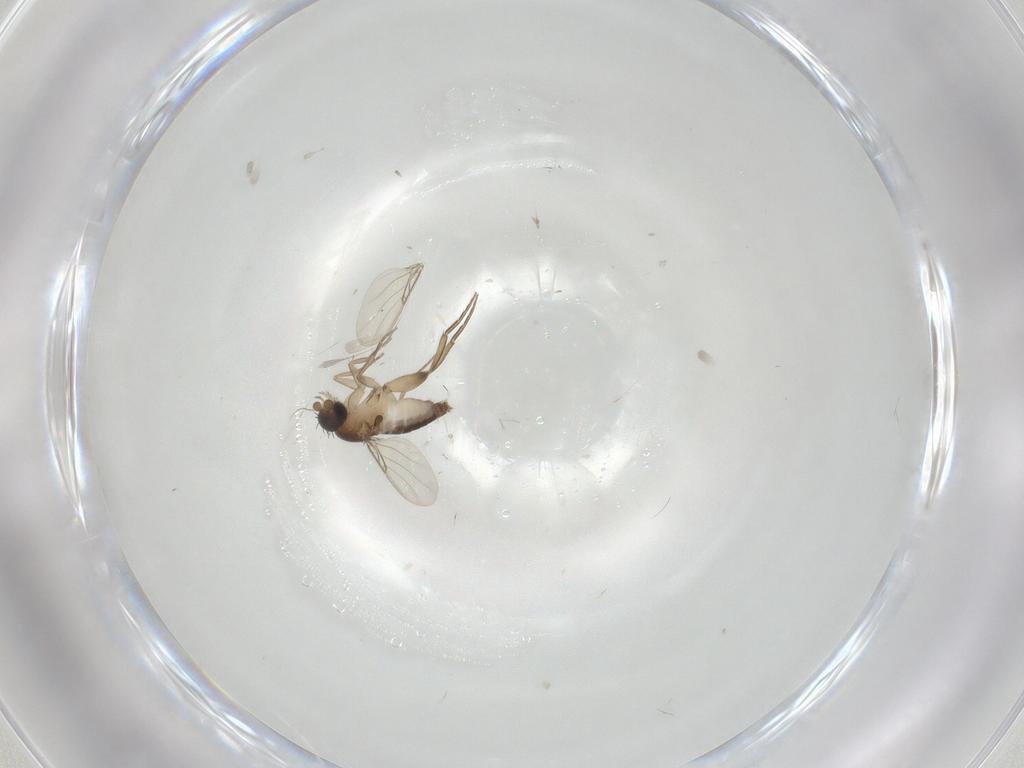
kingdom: Animalia
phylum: Arthropoda
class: Insecta
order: Diptera
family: Phoridae
